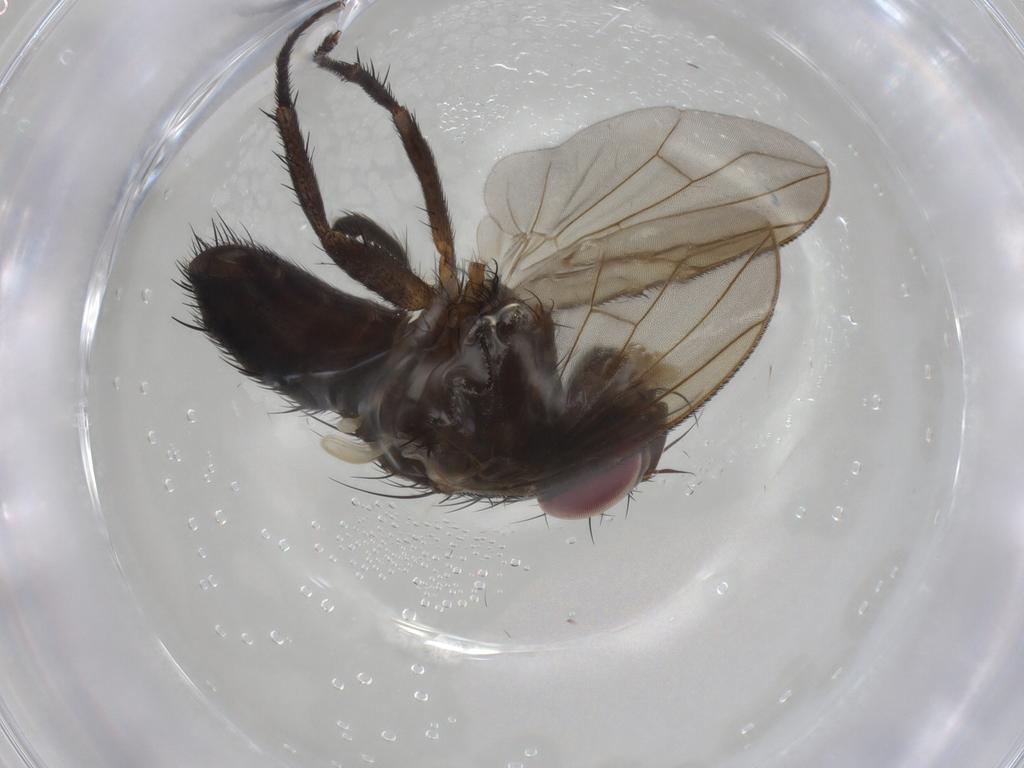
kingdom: Animalia
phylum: Arthropoda
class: Insecta
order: Diptera
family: Tachinidae
